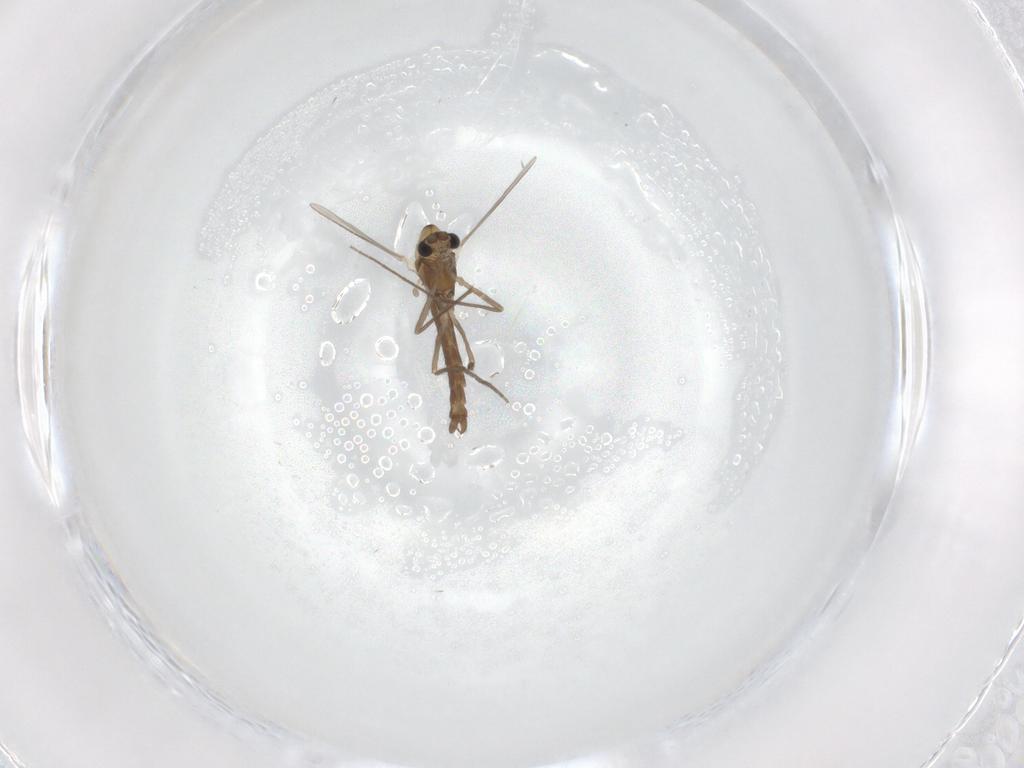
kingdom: Animalia
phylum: Arthropoda
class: Insecta
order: Diptera
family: Chironomidae
